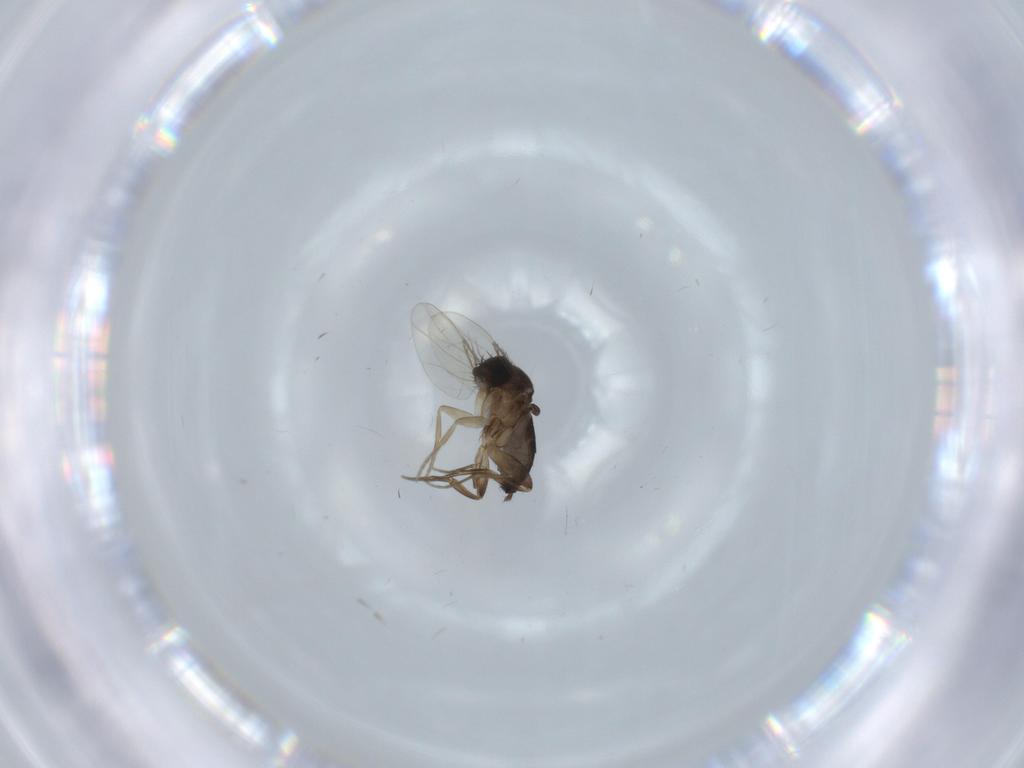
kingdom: Animalia
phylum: Arthropoda
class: Insecta
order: Diptera
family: Phoridae
